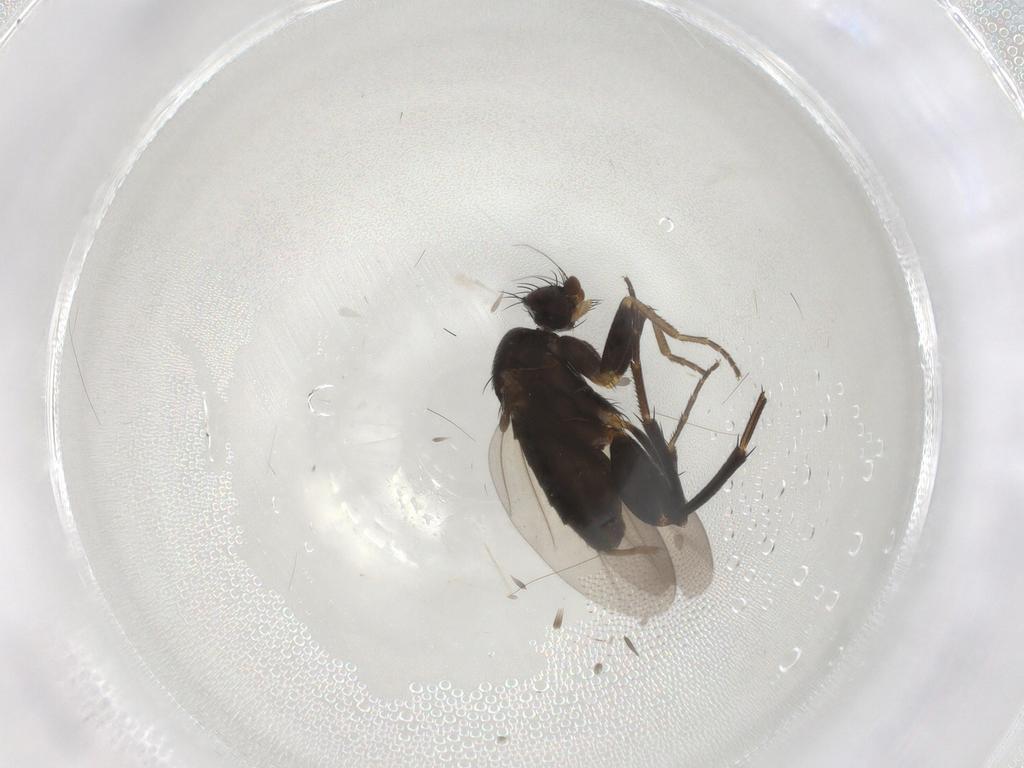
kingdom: Animalia
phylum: Arthropoda
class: Insecta
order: Diptera
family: Phoridae
